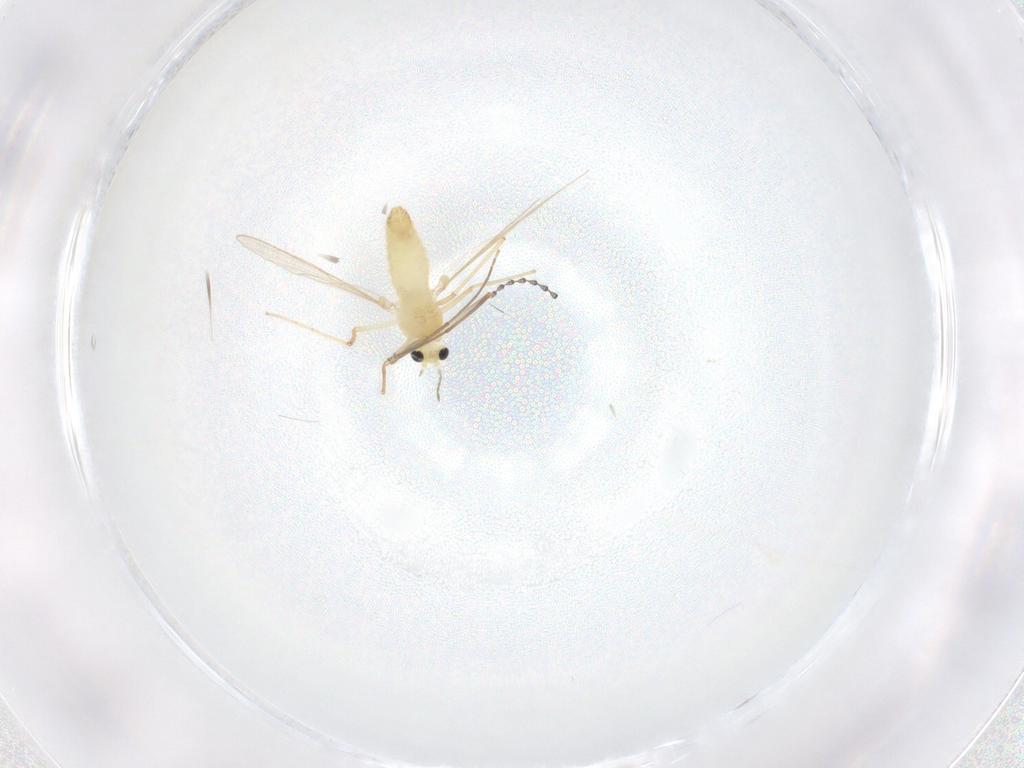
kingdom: Animalia
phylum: Arthropoda
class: Insecta
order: Diptera
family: Chironomidae
